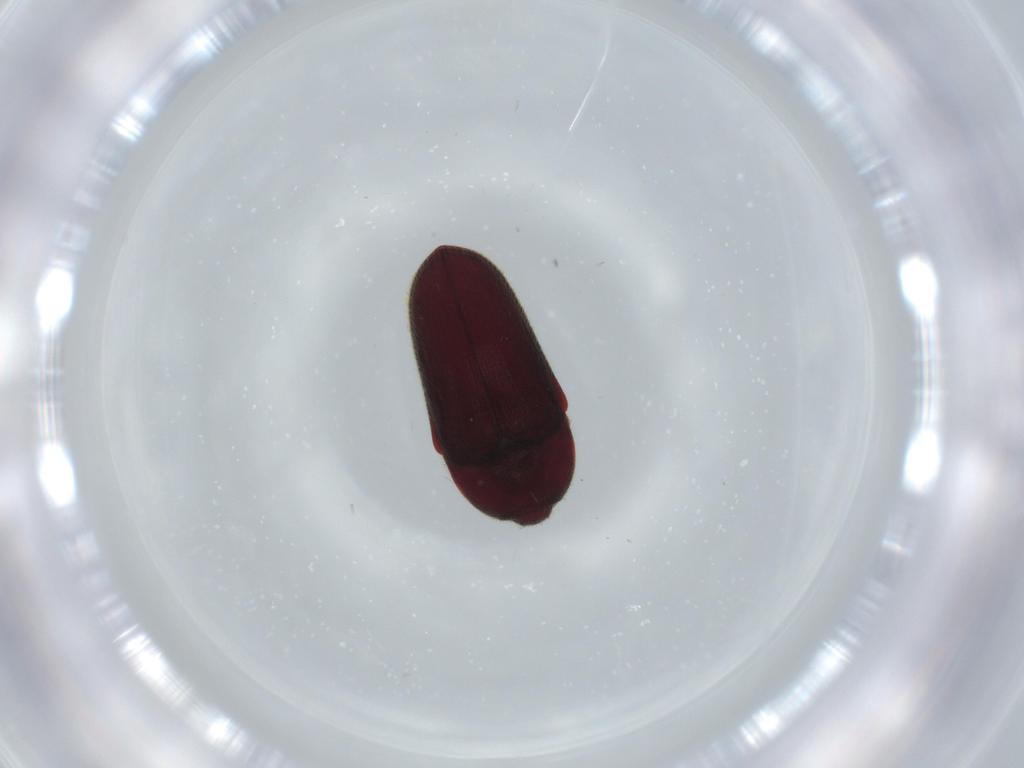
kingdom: Animalia
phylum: Arthropoda
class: Insecta
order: Coleoptera
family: Throscidae
